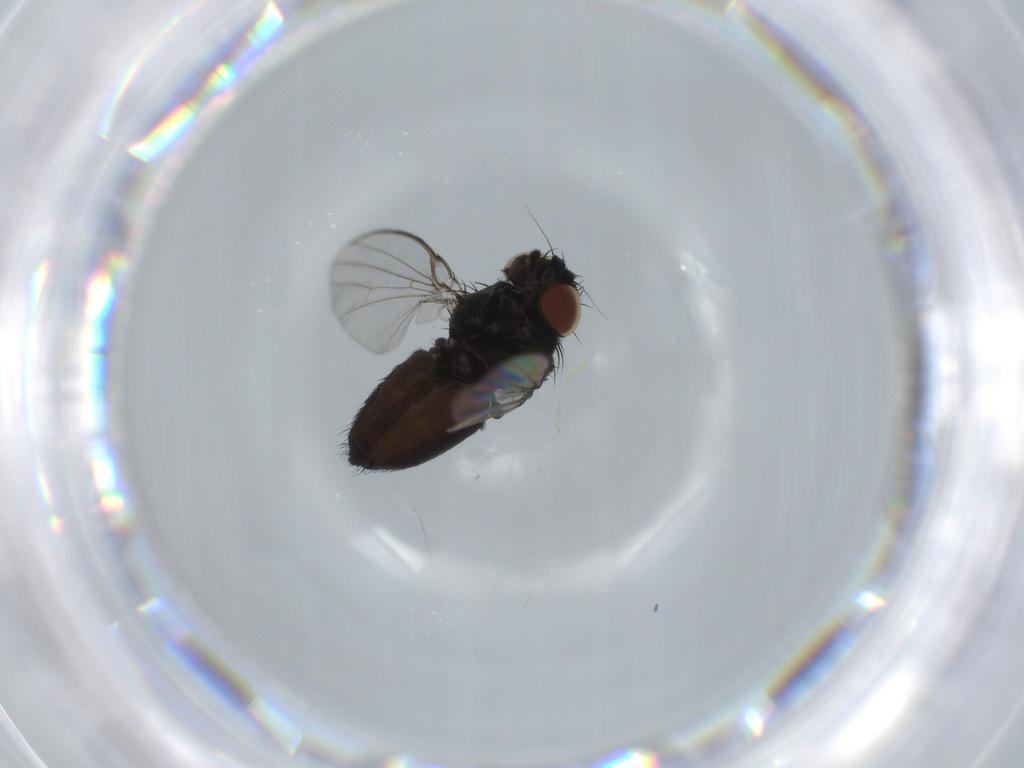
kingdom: Animalia
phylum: Arthropoda
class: Insecta
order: Diptera
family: Milichiidae
